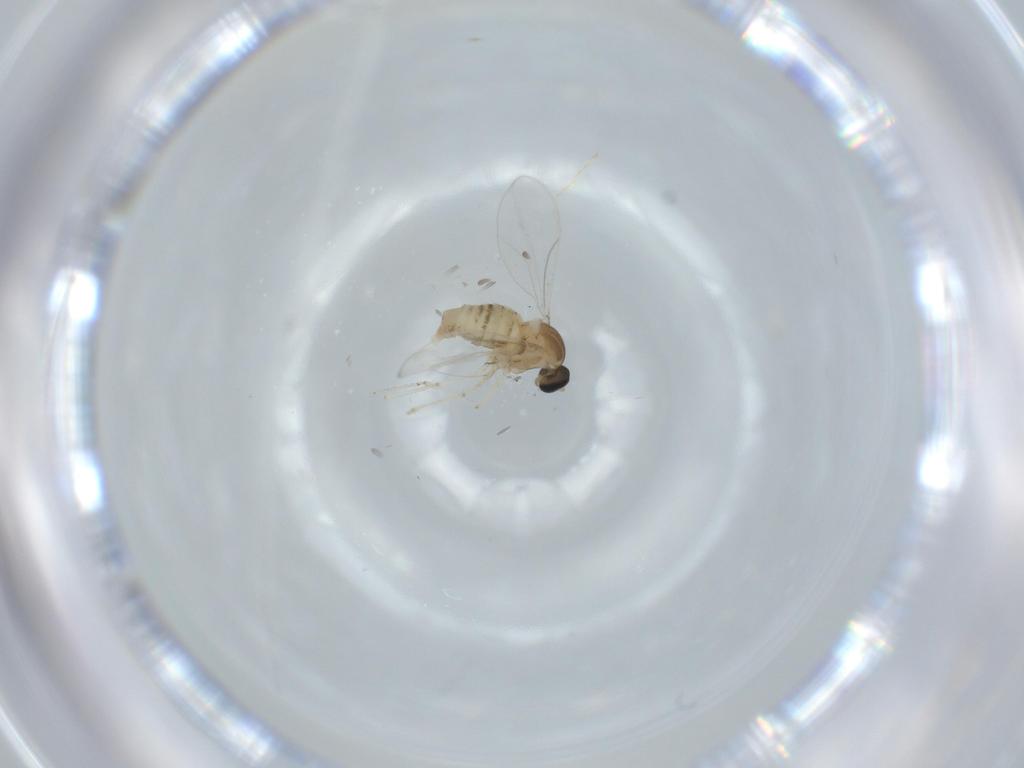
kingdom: Animalia
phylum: Arthropoda
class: Insecta
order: Diptera
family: Cecidomyiidae
